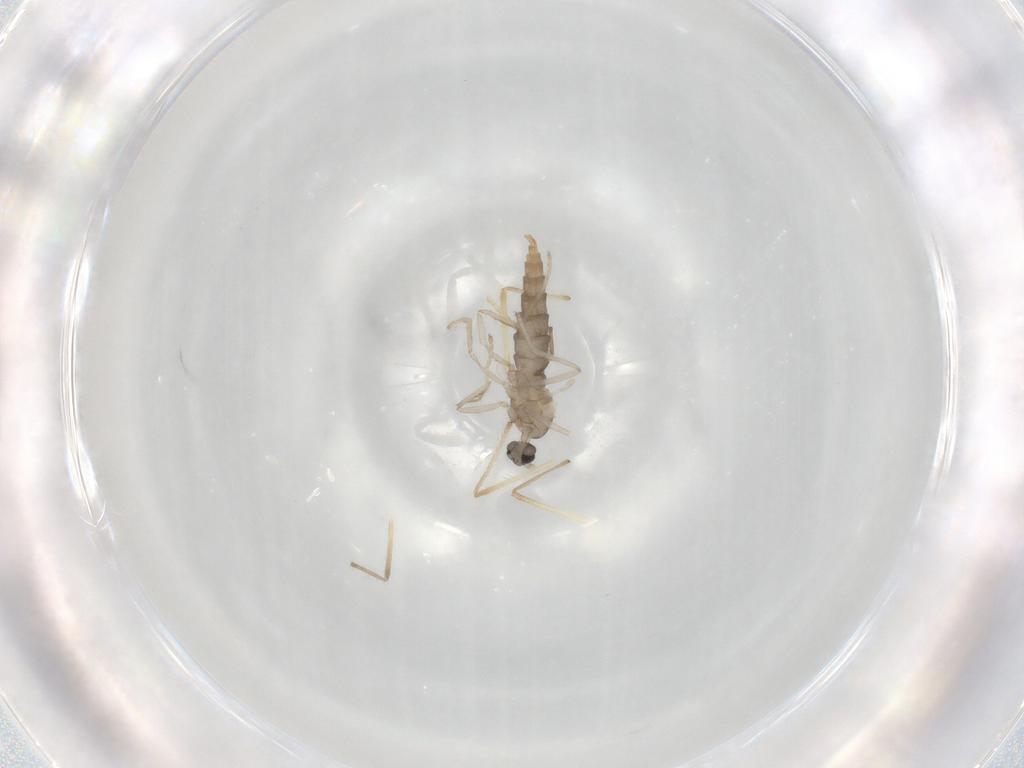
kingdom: Animalia
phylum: Arthropoda
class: Insecta
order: Diptera
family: Cecidomyiidae
